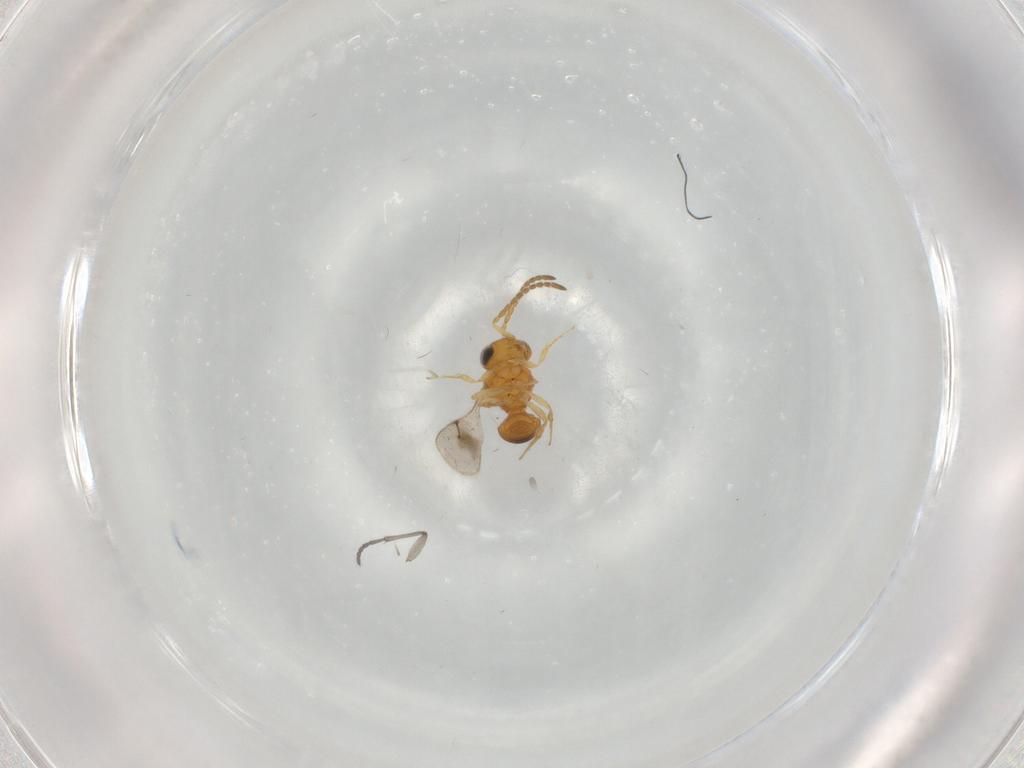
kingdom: Animalia
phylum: Arthropoda
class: Insecta
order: Hymenoptera
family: Scelionidae
